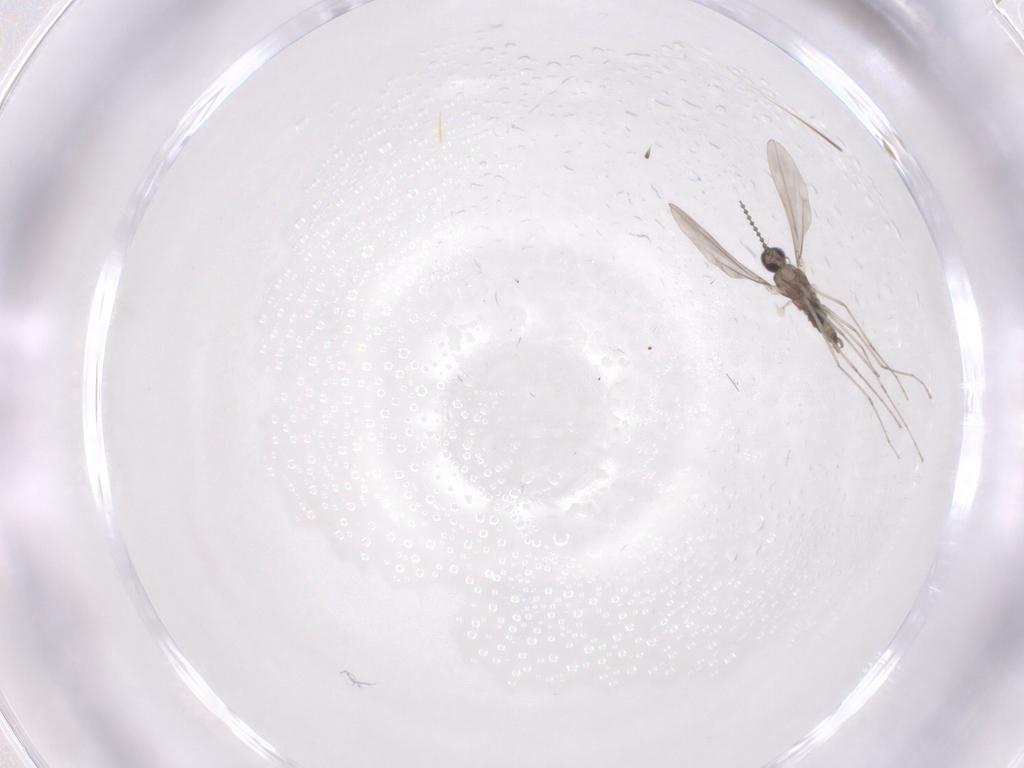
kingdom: Animalia
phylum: Arthropoda
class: Insecta
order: Diptera
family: Cecidomyiidae
